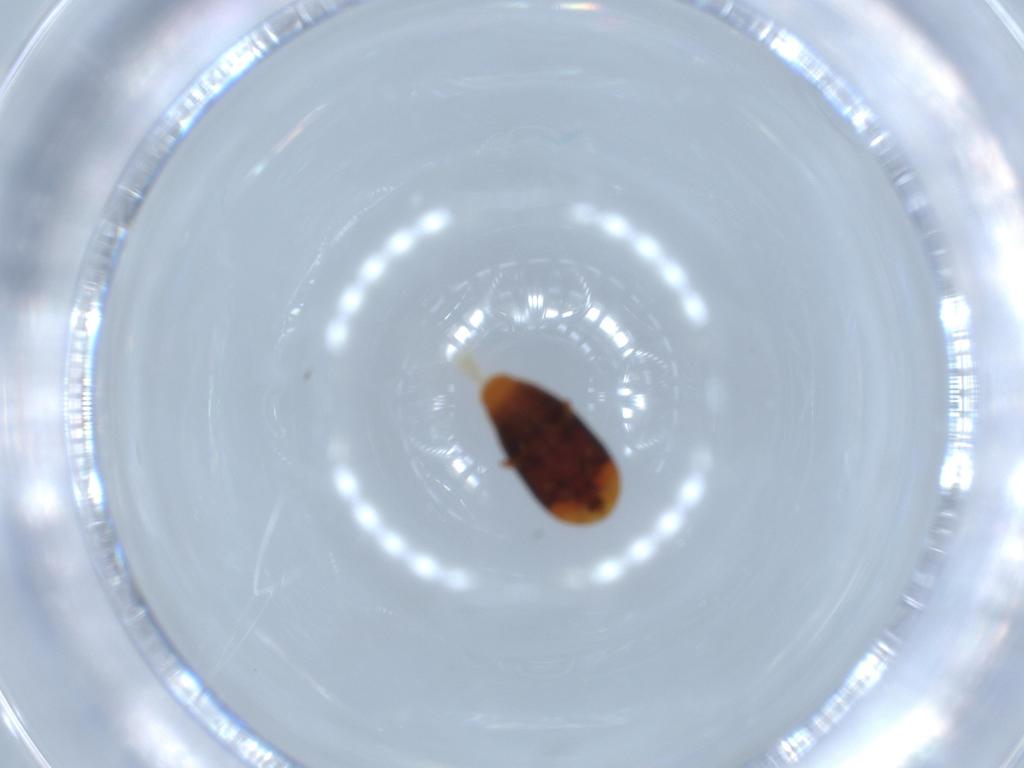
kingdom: Animalia
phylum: Arthropoda
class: Insecta
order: Coleoptera
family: Corylophidae
